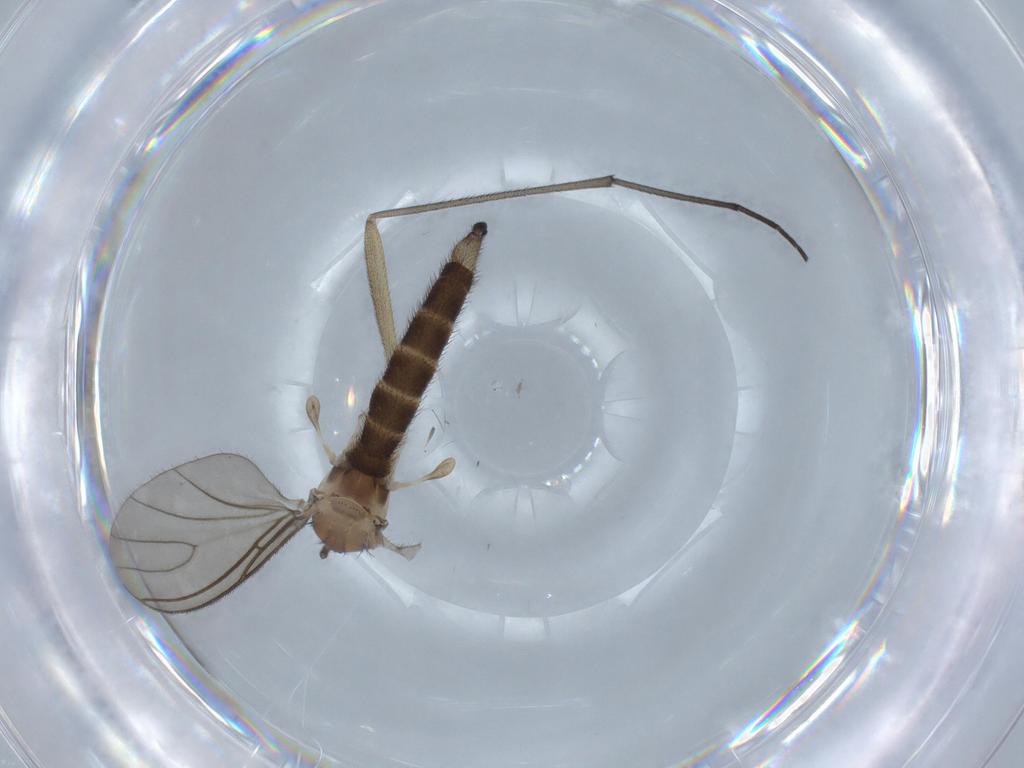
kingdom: Animalia
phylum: Arthropoda
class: Insecta
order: Diptera
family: Sciaridae
